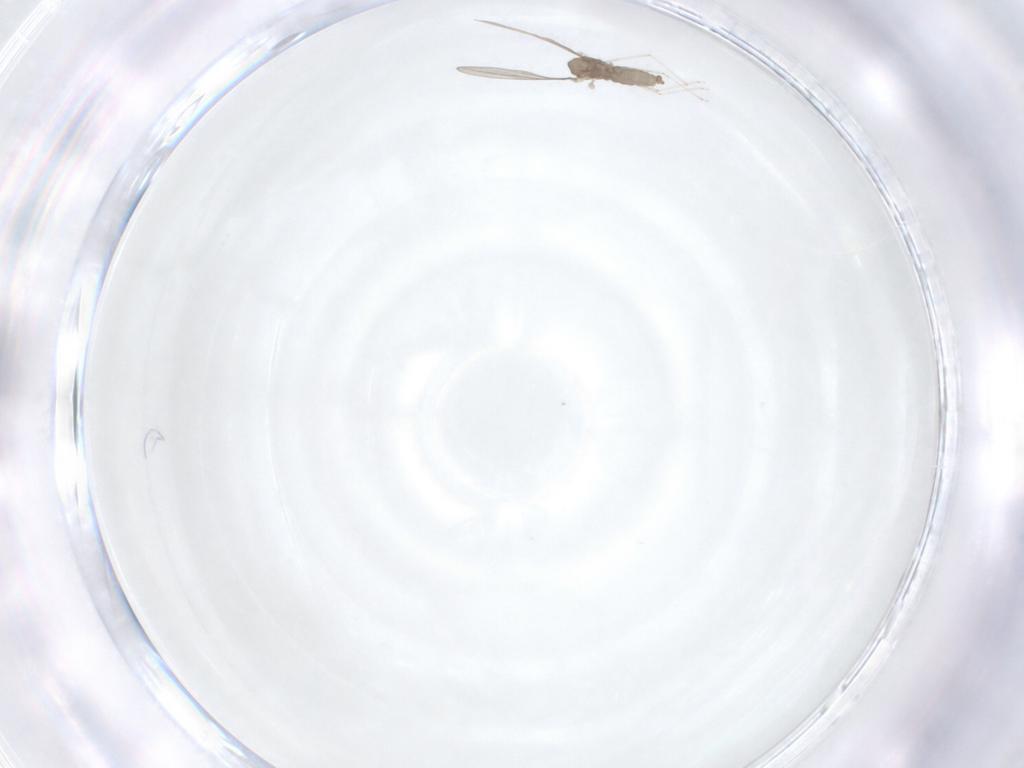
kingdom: Animalia
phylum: Arthropoda
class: Insecta
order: Diptera
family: Cecidomyiidae
